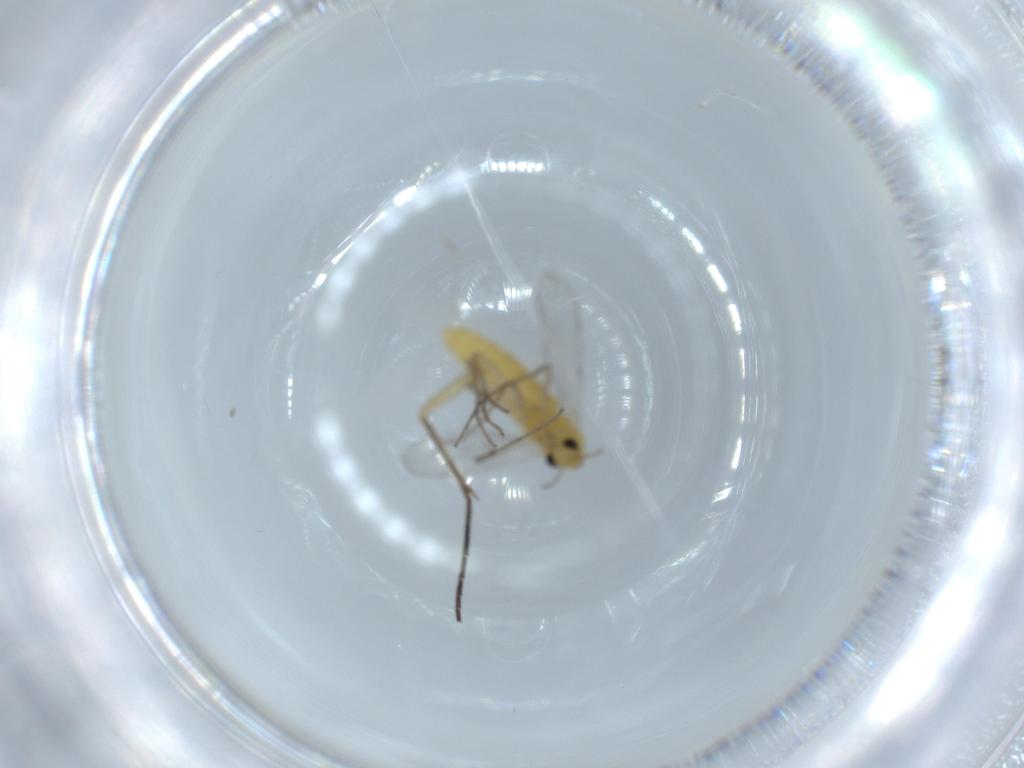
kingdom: Animalia
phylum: Arthropoda
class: Insecta
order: Diptera
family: Chironomidae
